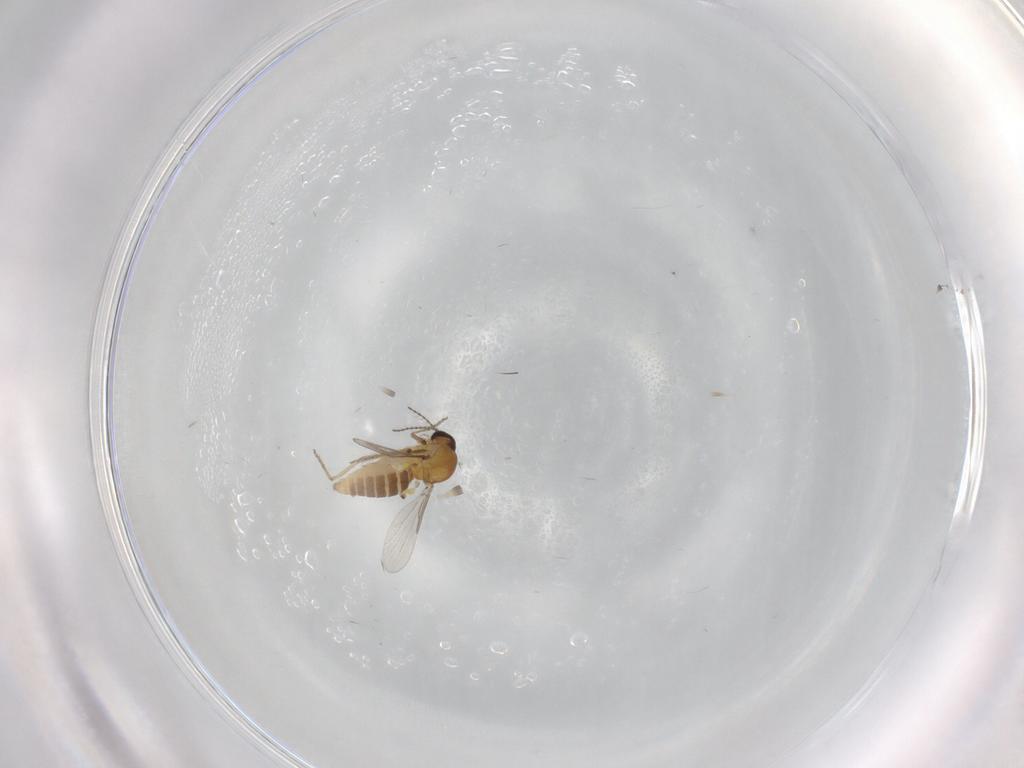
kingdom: Animalia
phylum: Arthropoda
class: Insecta
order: Diptera
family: Ceratopogonidae
